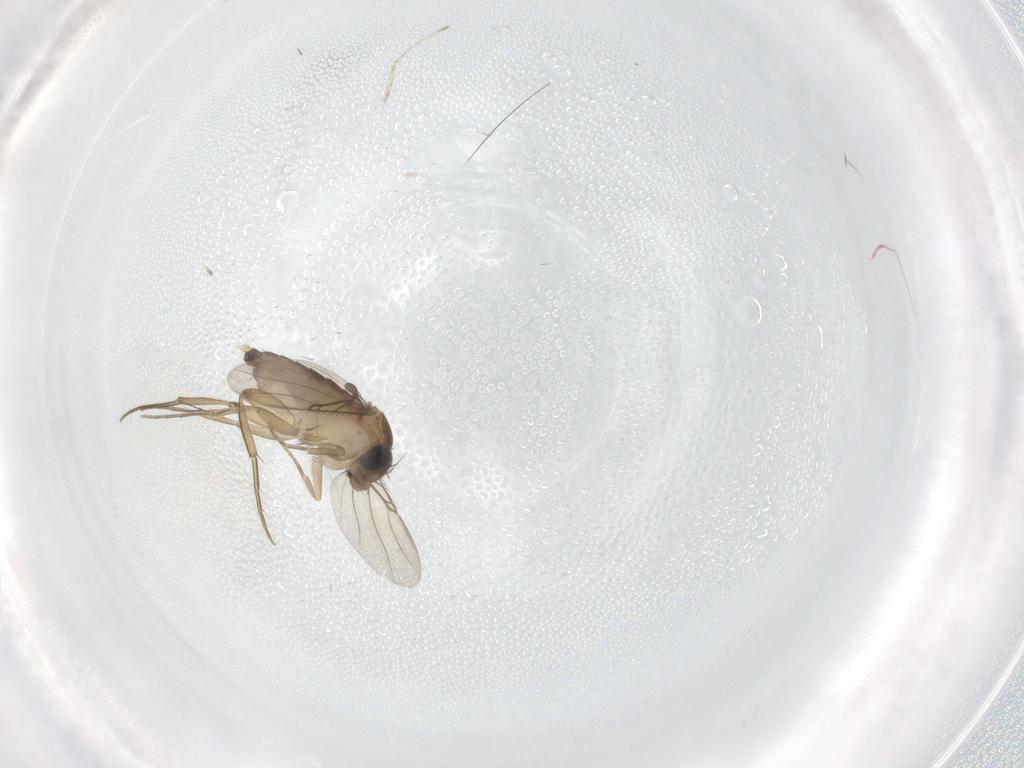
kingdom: Animalia
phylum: Arthropoda
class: Insecta
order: Diptera
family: Phoridae
